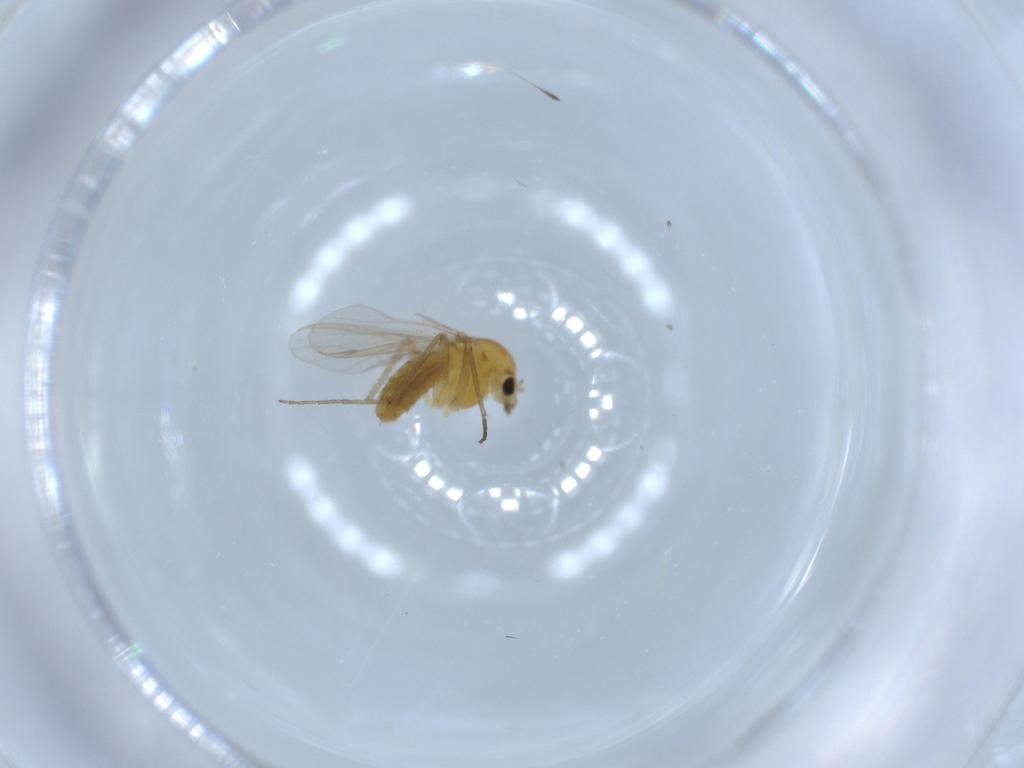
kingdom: Animalia
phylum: Arthropoda
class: Insecta
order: Diptera
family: Chironomidae
